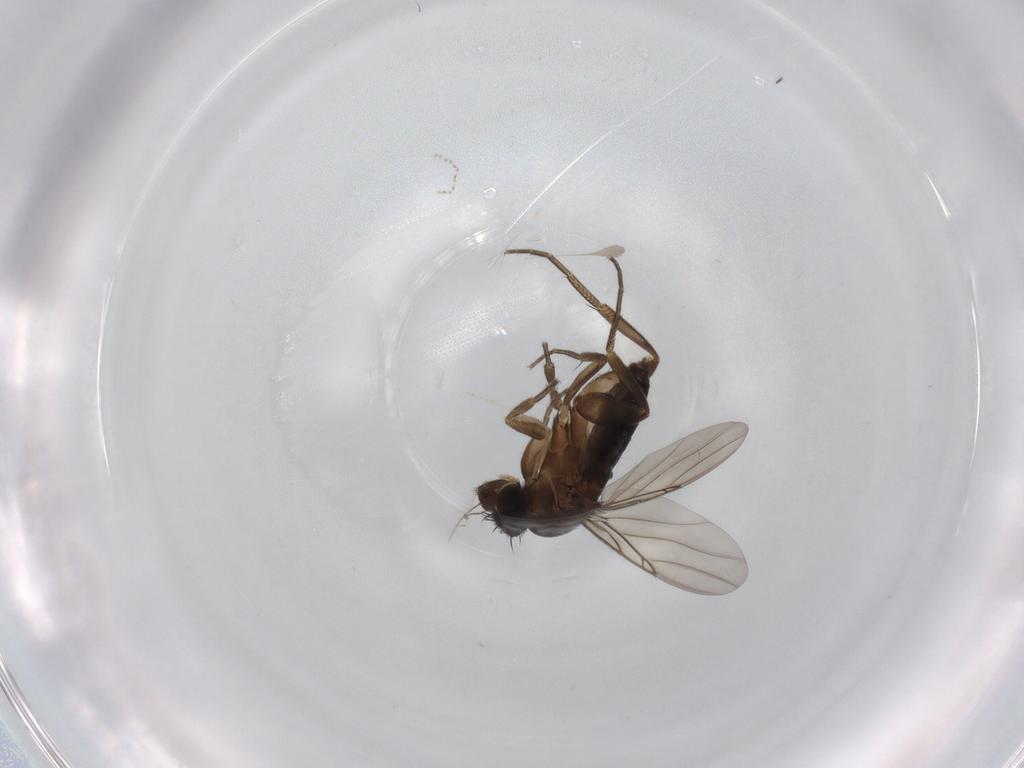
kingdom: Animalia
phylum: Arthropoda
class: Insecta
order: Diptera
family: Phoridae
